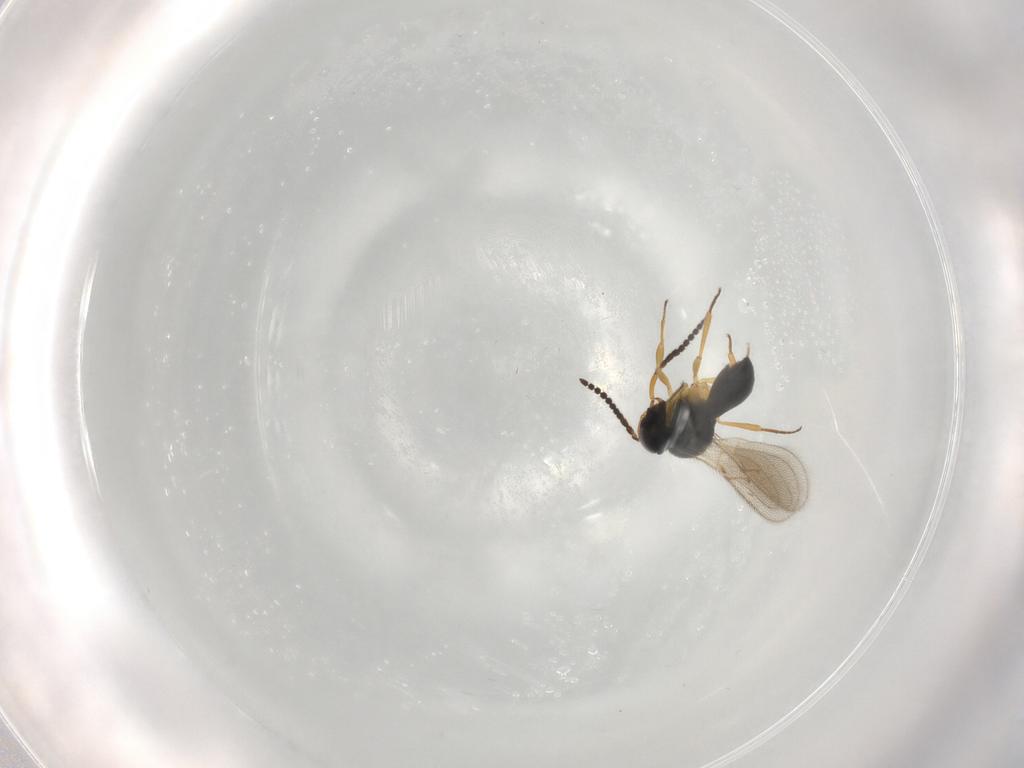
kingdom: Animalia
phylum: Arthropoda
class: Insecta
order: Hymenoptera
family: Scelionidae
